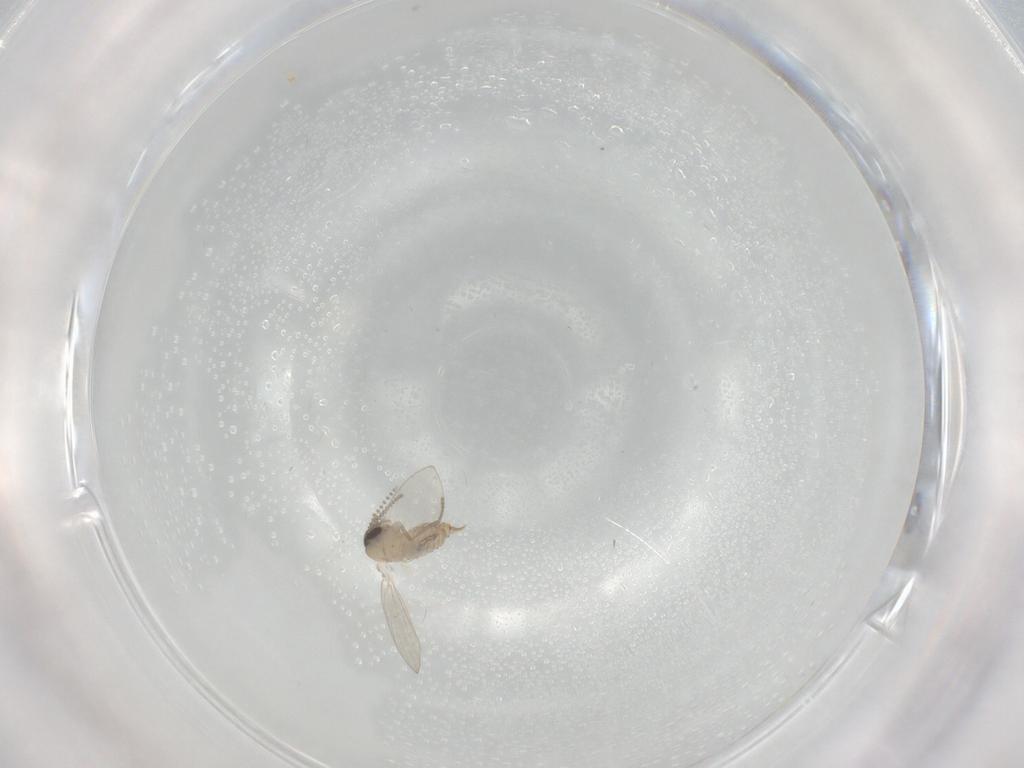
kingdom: Animalia
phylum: Arthropoda
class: Insecta
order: Diptera
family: Psychodidae
